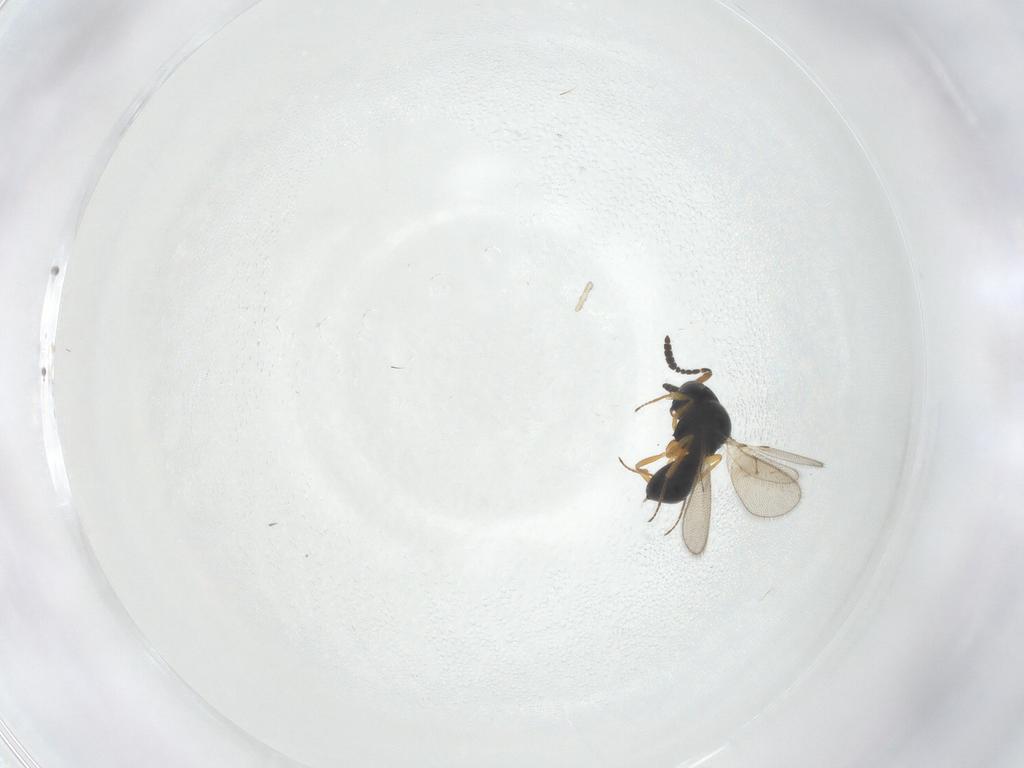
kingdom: Animalia
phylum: Arthropoda
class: Insecta
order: Hymenoptera
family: Scelionidae
